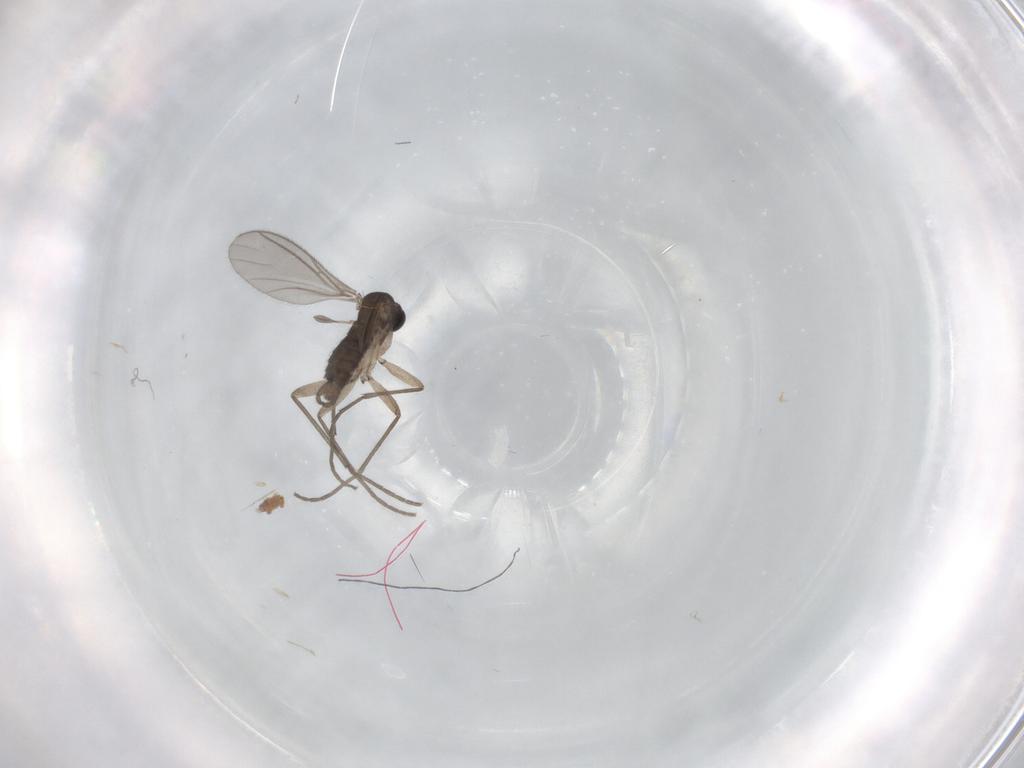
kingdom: Animalia
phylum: Arthropoda
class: Insecta
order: Diptera
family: Sciaridae
